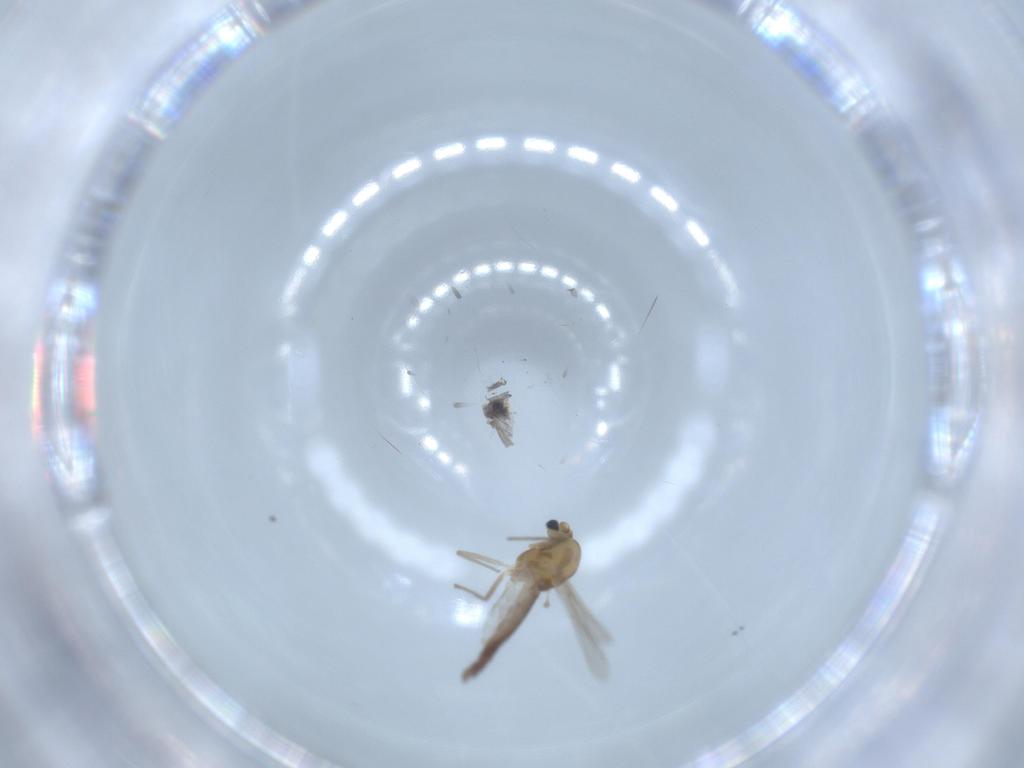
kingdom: Animalia
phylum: Arthropoda
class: Insecta
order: Diptera
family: Chironomidae
